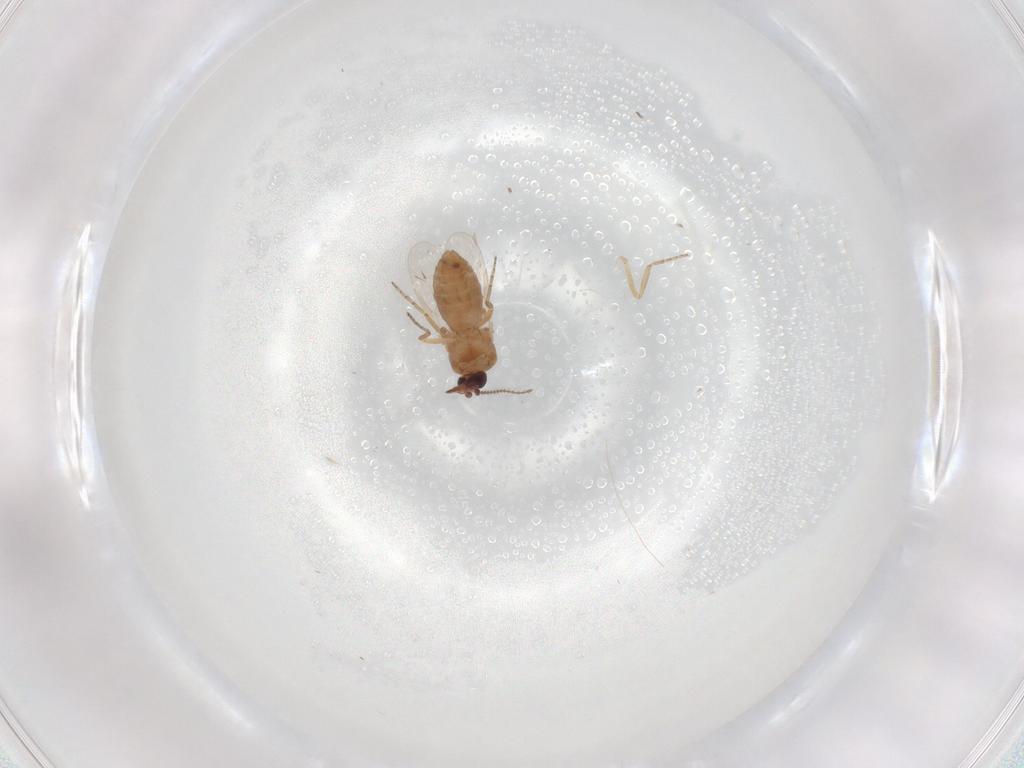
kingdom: Animalia
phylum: Arthropoda
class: Insecta
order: Diptera
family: Ceratopogonidae
